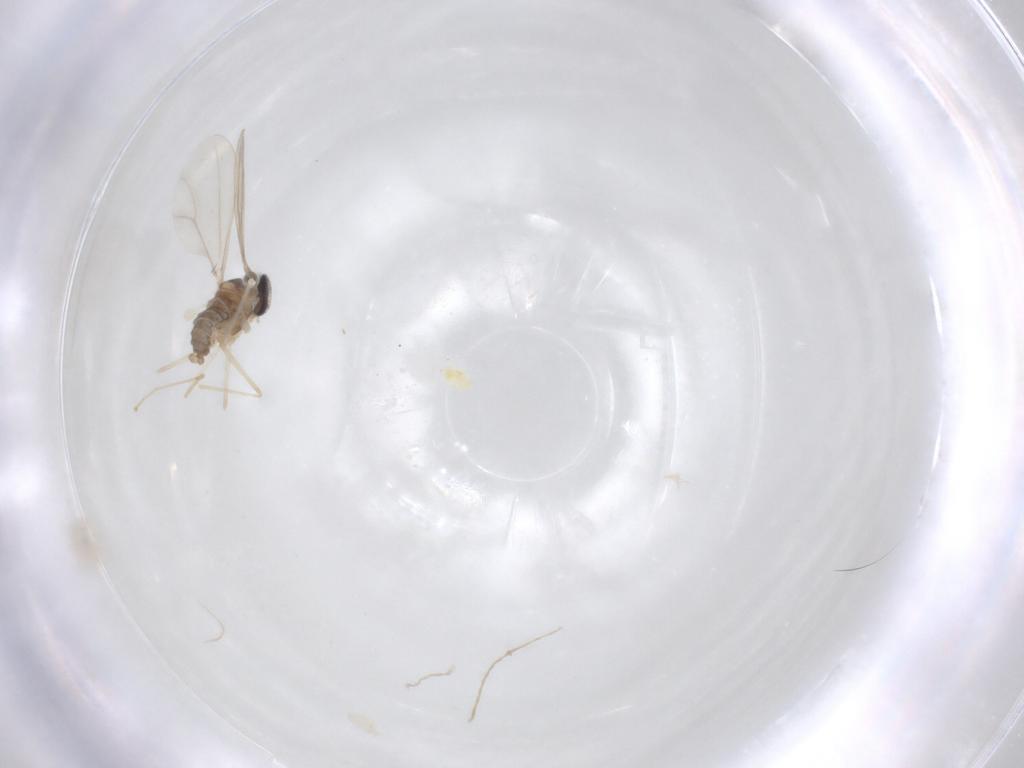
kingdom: Animalia
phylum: Arthropoda
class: Insecta
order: Diptera
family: Cecidomyiidae
